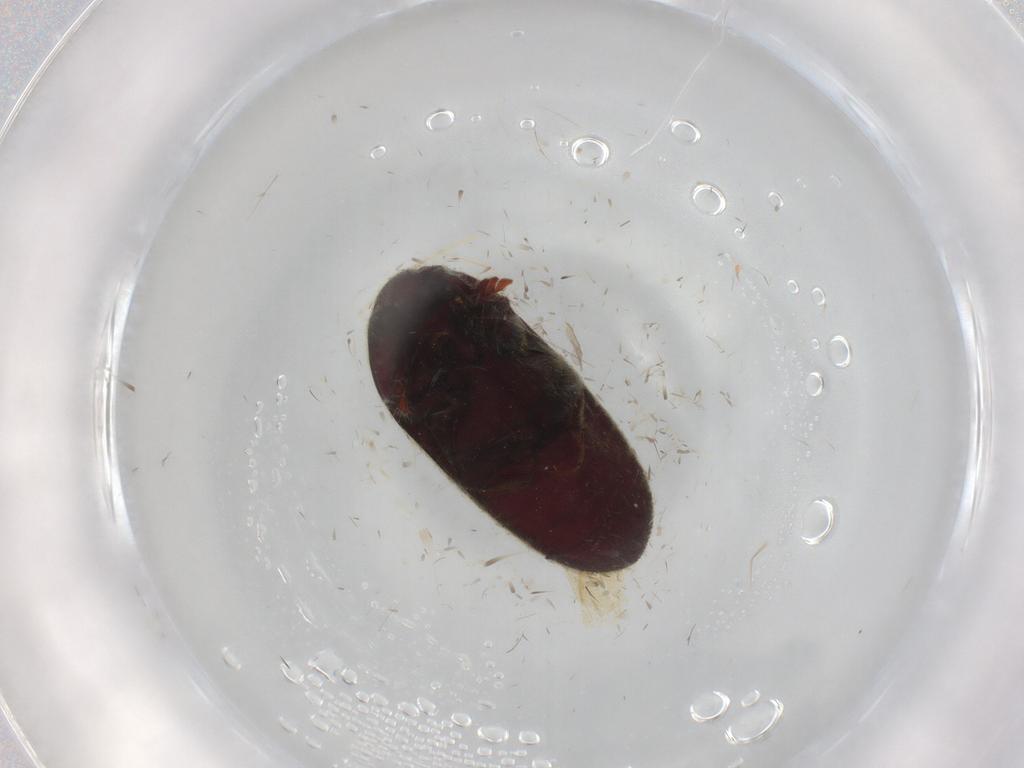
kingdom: Animalia
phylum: Arthropoda
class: Insecta
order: Coleoptera
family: Throscidae
